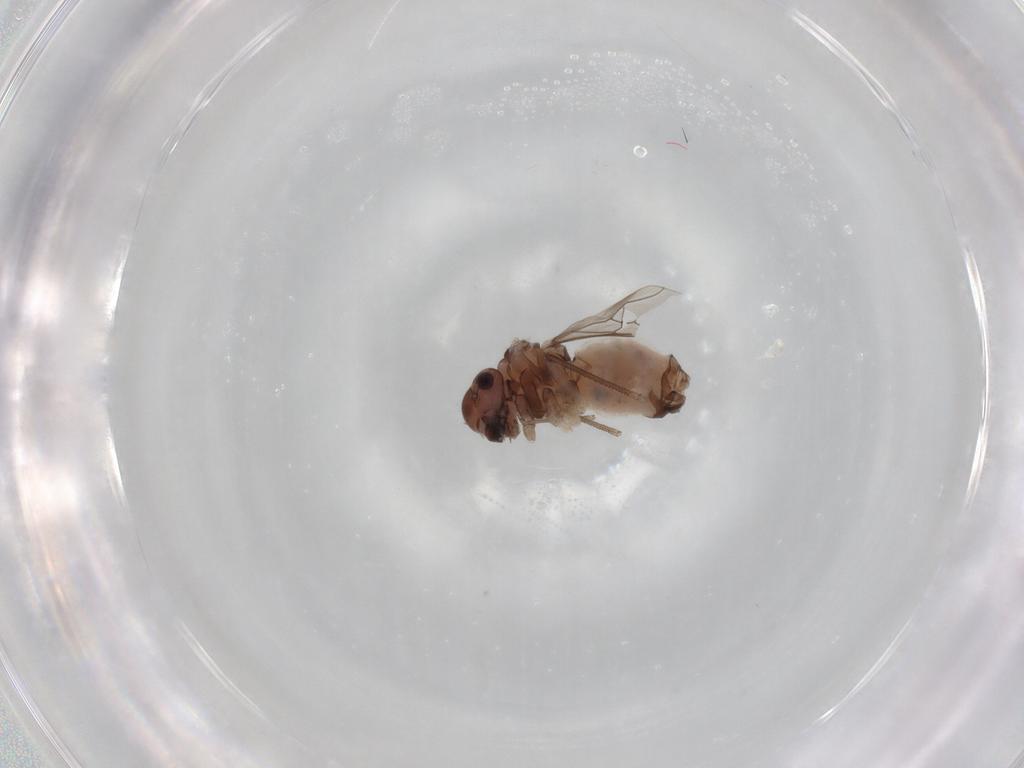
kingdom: Animalia
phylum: Arthropoda
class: Insecta
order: Psocodea
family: Peripsocidae
